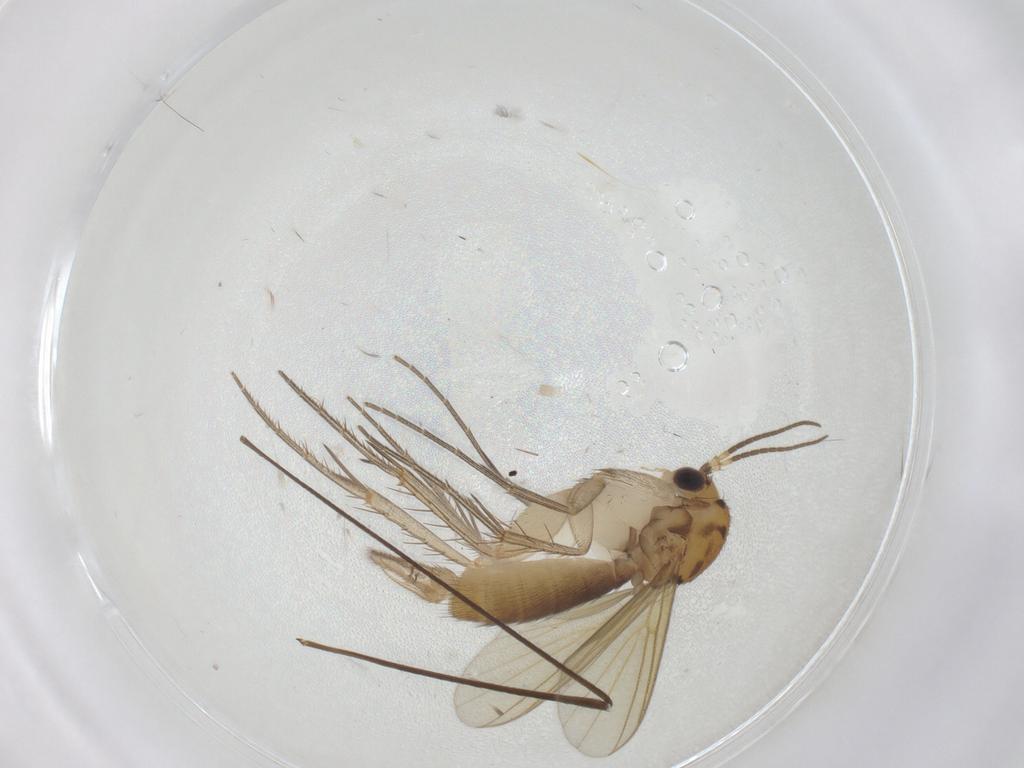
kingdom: Animalia
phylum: Arthropoda
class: Insecta
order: Diptera
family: Mycetophilidae
